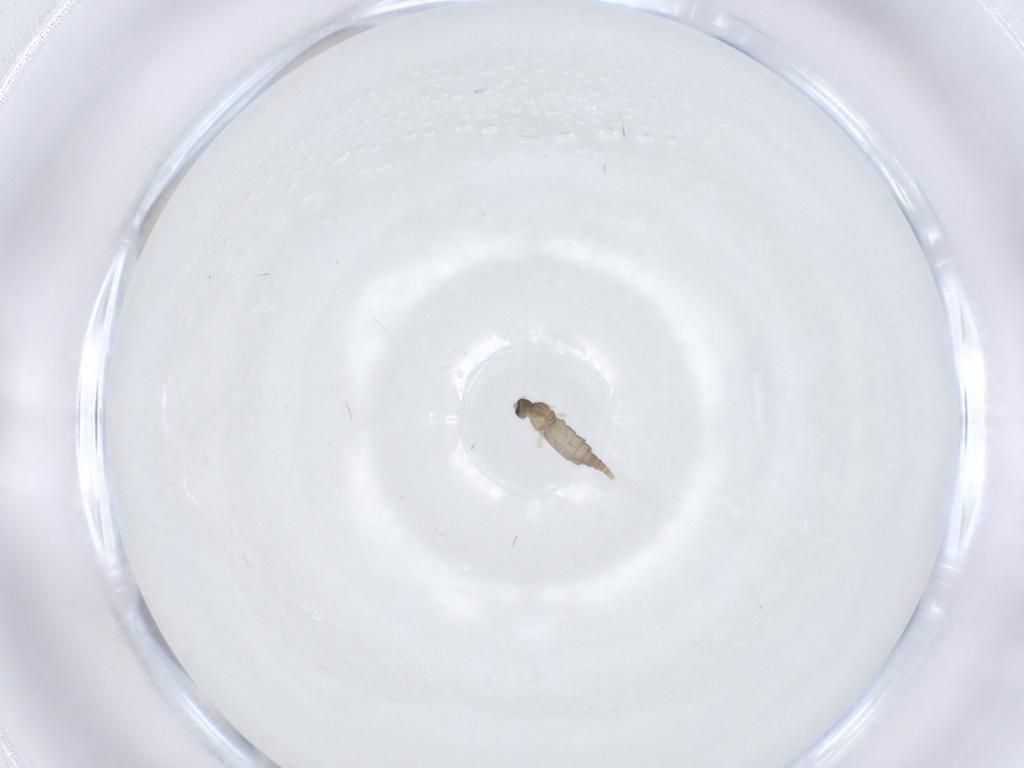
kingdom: Animalia
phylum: Arthropoda
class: Insecta
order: Diptera
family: Cecidomyiidae
